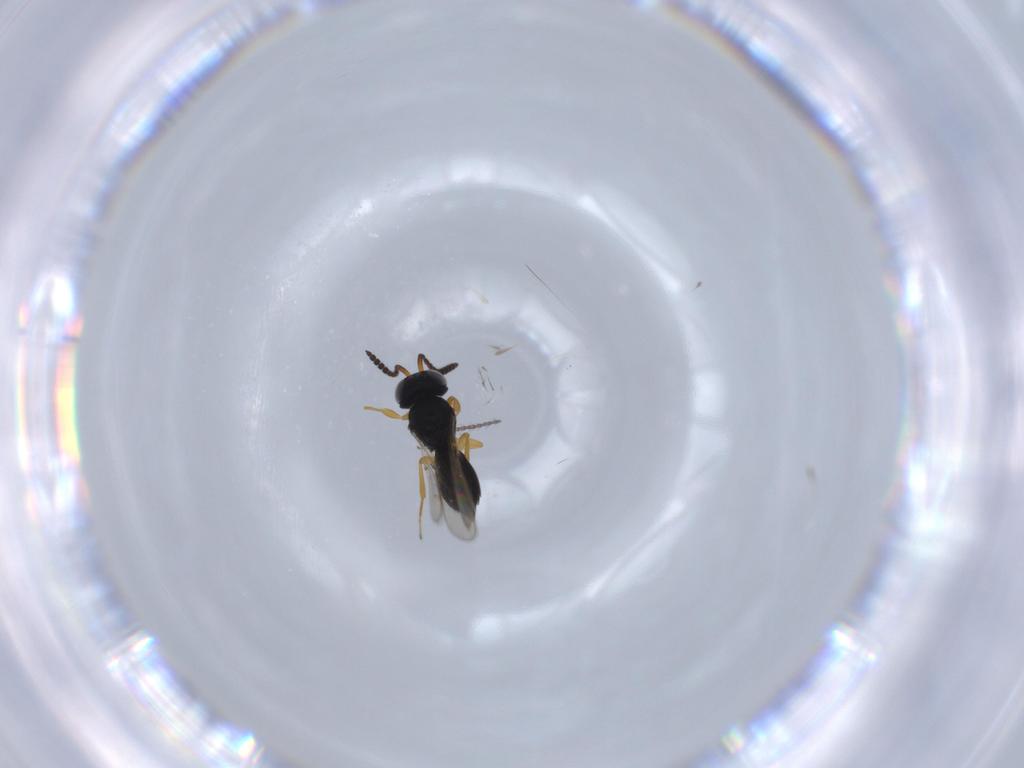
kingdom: Animalia
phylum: Arthropoda
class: Insecta
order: Hymenoptera
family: Scelionidae
